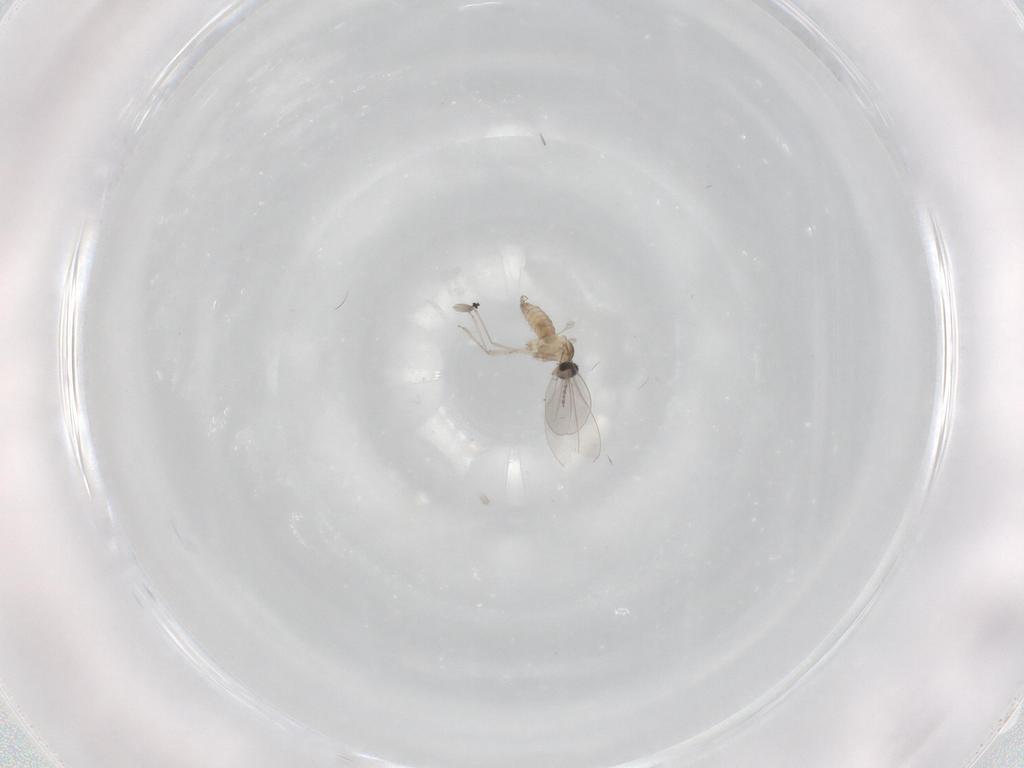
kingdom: Animalia
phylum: Arthropoda
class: Insecta
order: Diptera
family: Cecidomyiidae
